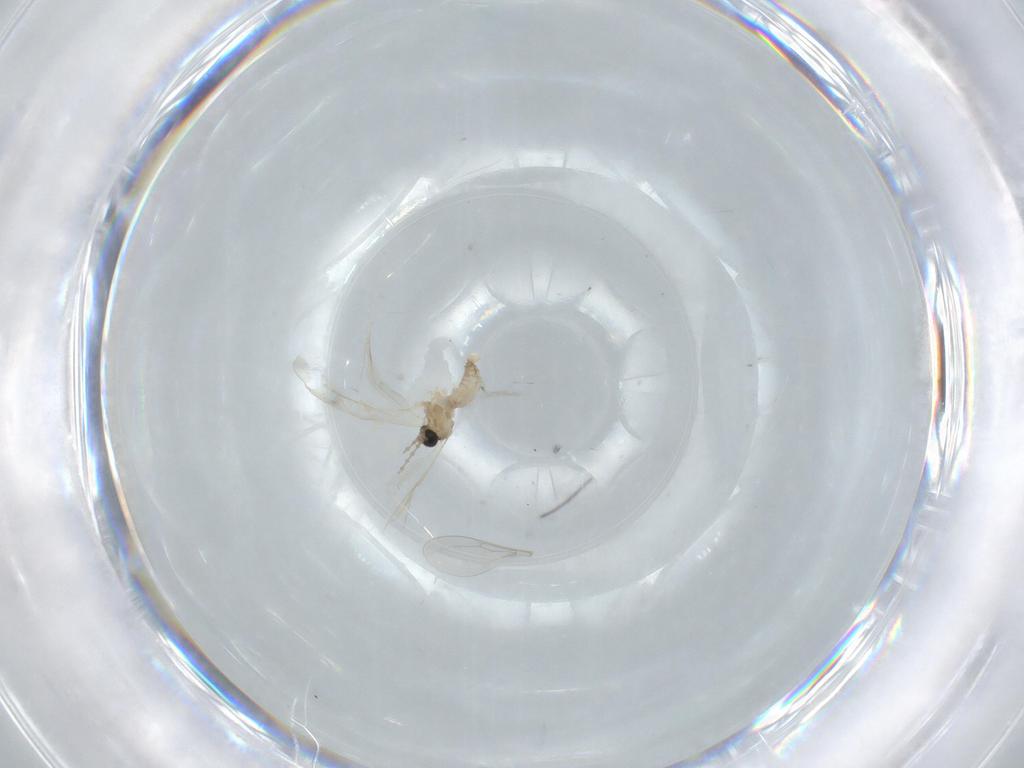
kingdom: Animalia
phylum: Arthropoda
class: Insecta
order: Diptera
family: Cecidomyiidae
